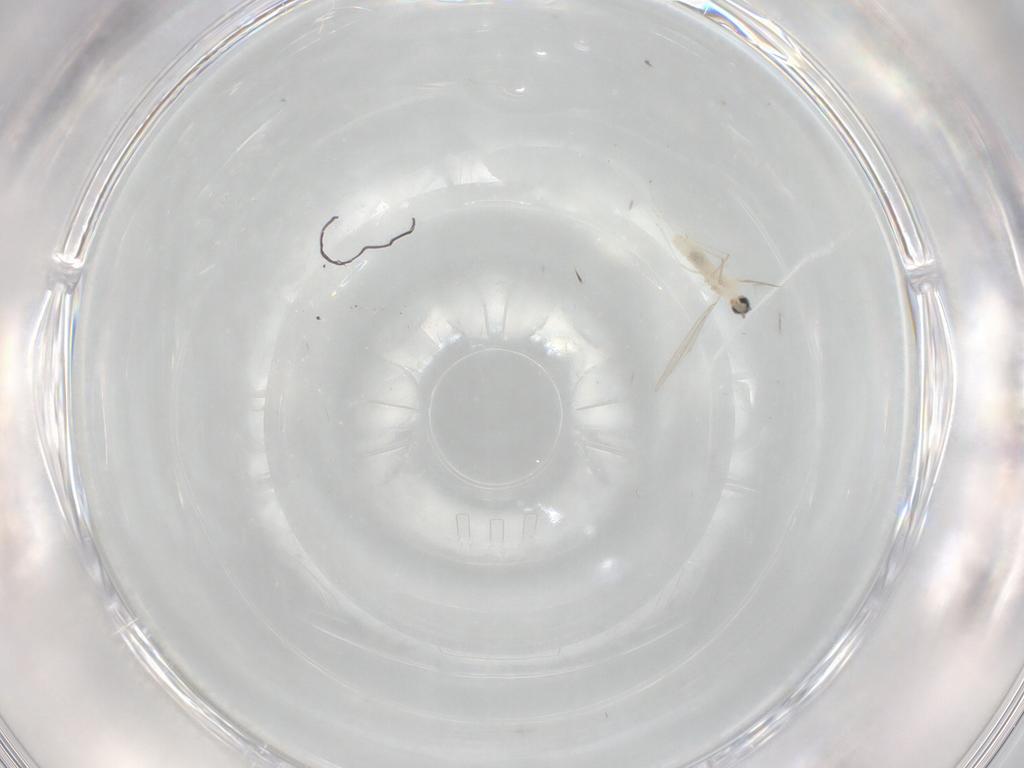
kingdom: Animalia
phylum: Arthropoda
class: Insecta
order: Diptera
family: Cecidomyiidae
